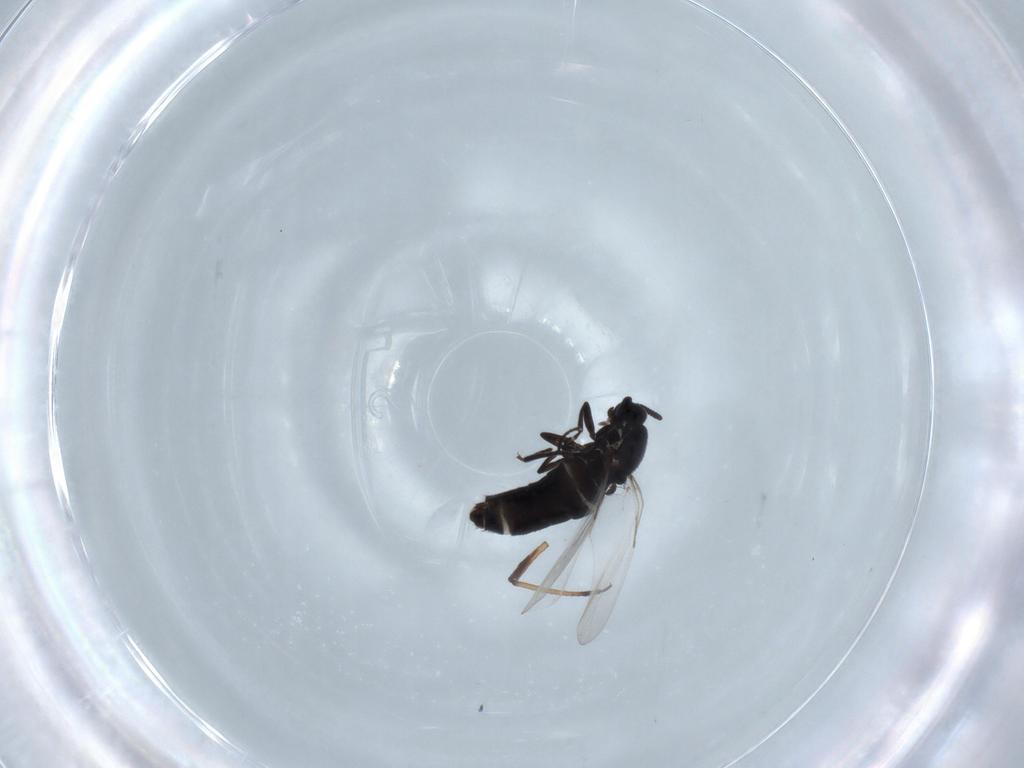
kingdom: Animalia
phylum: Arthropoda
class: Insecta
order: Diptera
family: Scatopsidae
